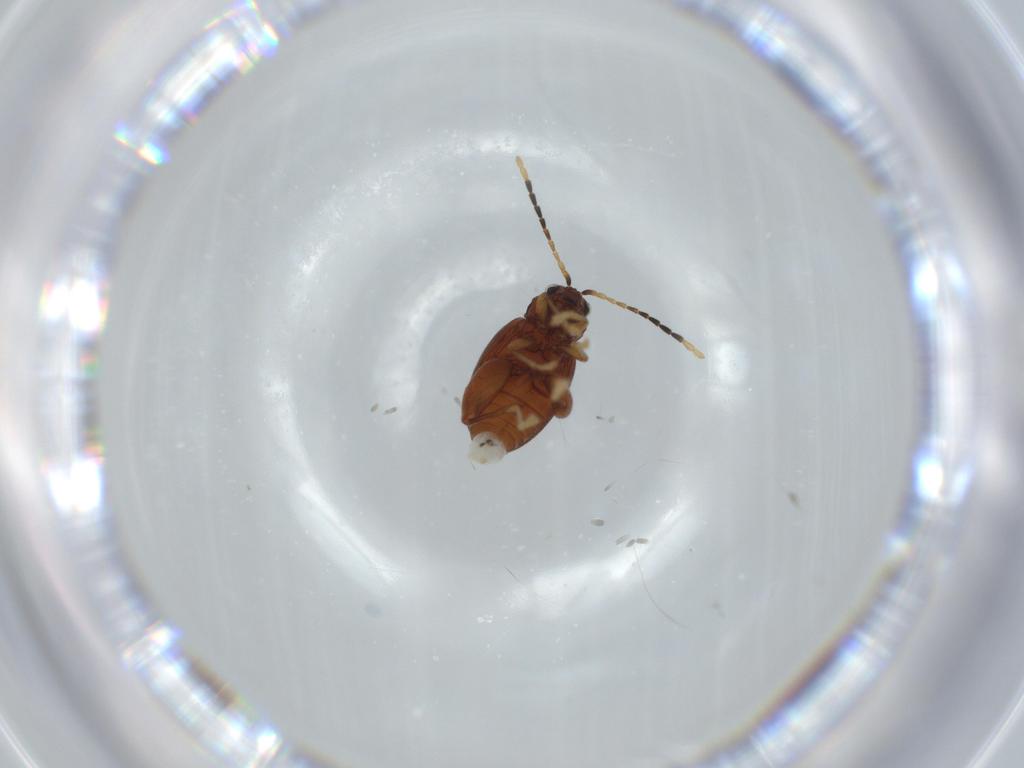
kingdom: Animalia
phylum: Arthropoda
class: Insecta
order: Coleoptera
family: Chrysomelidae
